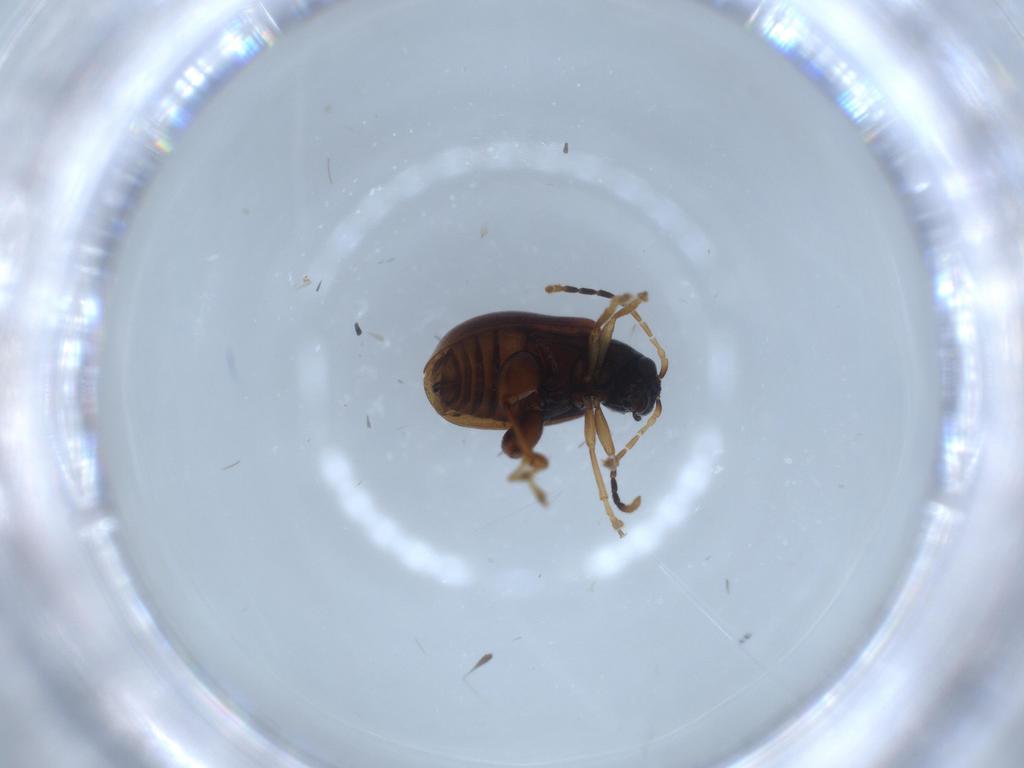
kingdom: Animalia
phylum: Arthropoda
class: Insecta
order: Coleoptera
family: Chrysomelidae
